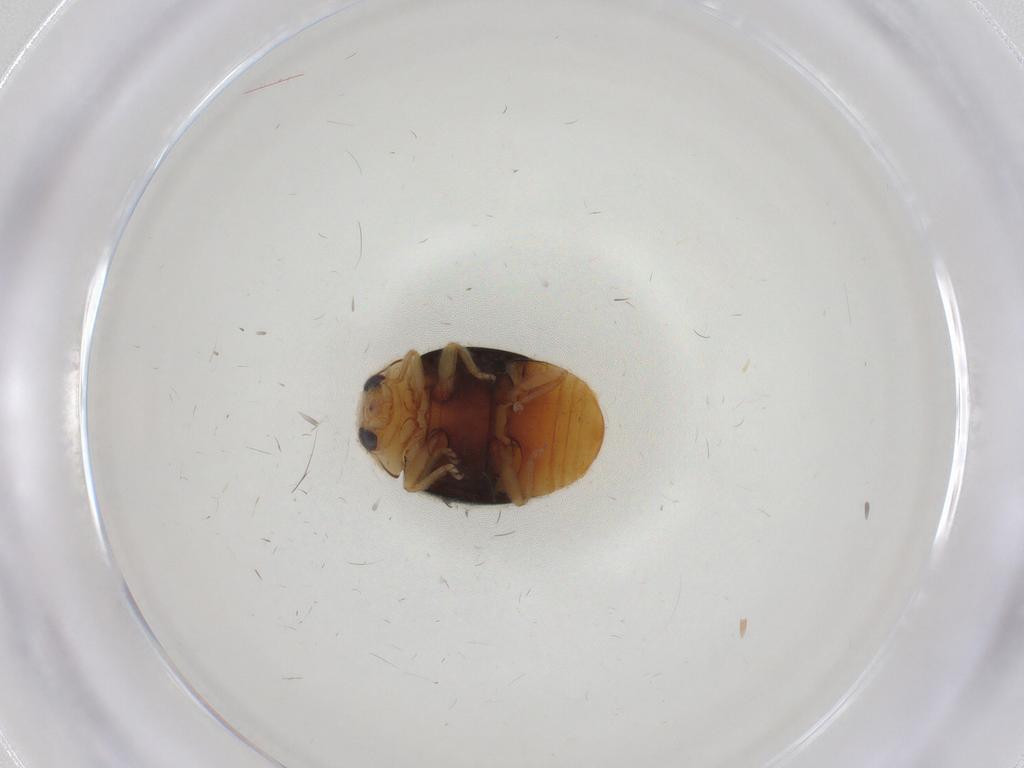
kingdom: Animalia
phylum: Arthropoda
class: Insecta
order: Coleoptera
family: Coccinellidae
